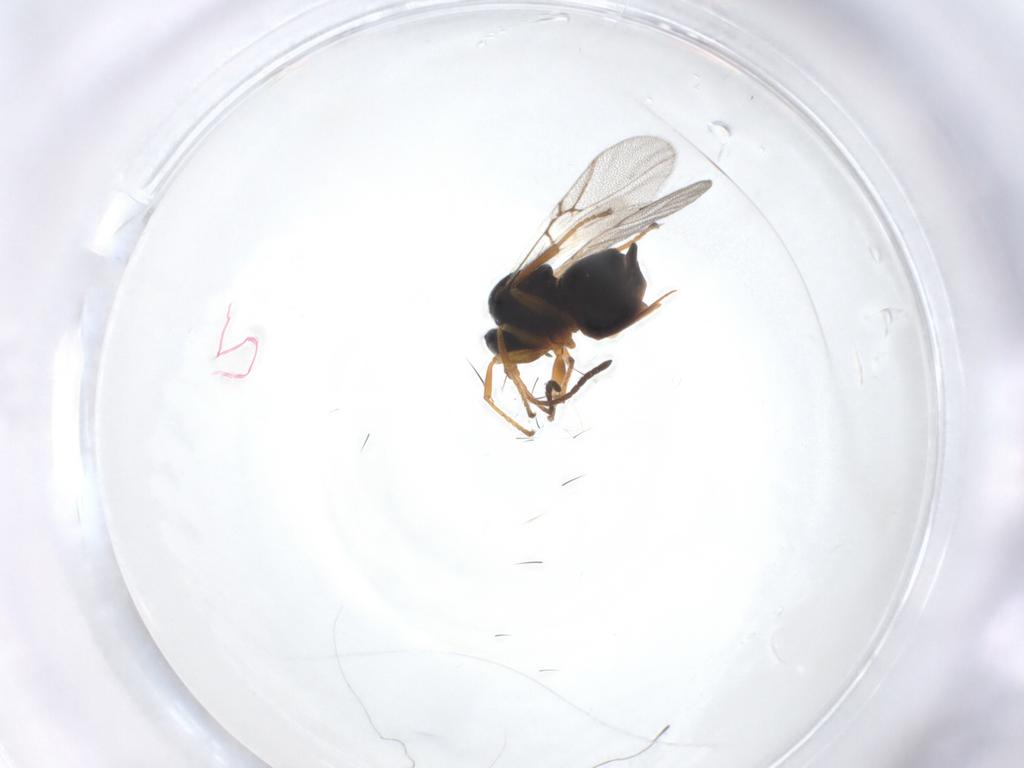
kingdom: Animalia
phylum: Arthropoda
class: Insecta
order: Hymenoptera
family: Cynipidae
